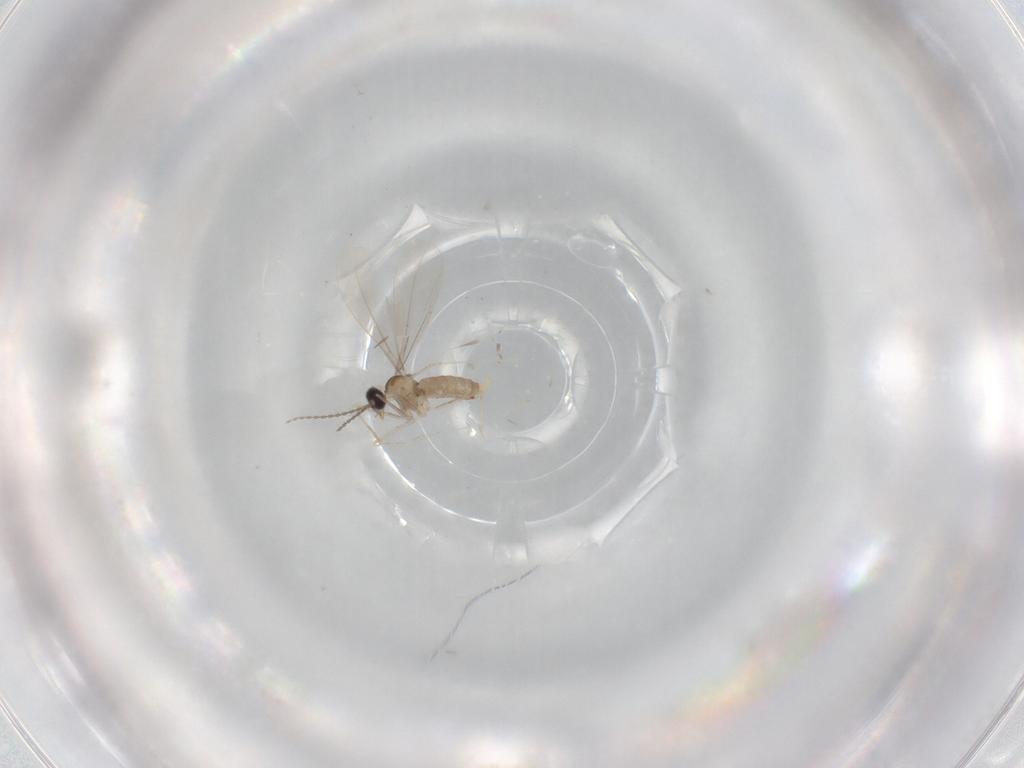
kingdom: Animalia
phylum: Arthropoda
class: Insecta
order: Diptera
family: Cecidomyiidae
